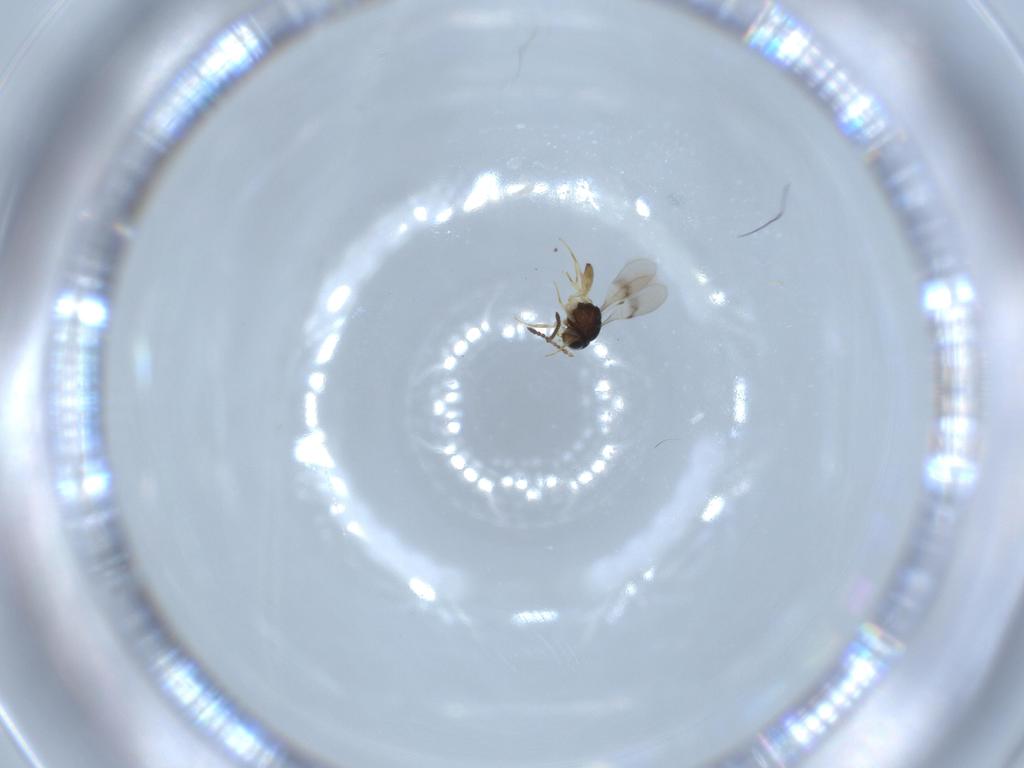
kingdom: Animalia
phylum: Arthropoda
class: Insecta
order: Hymenoptera
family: Scelionidae
